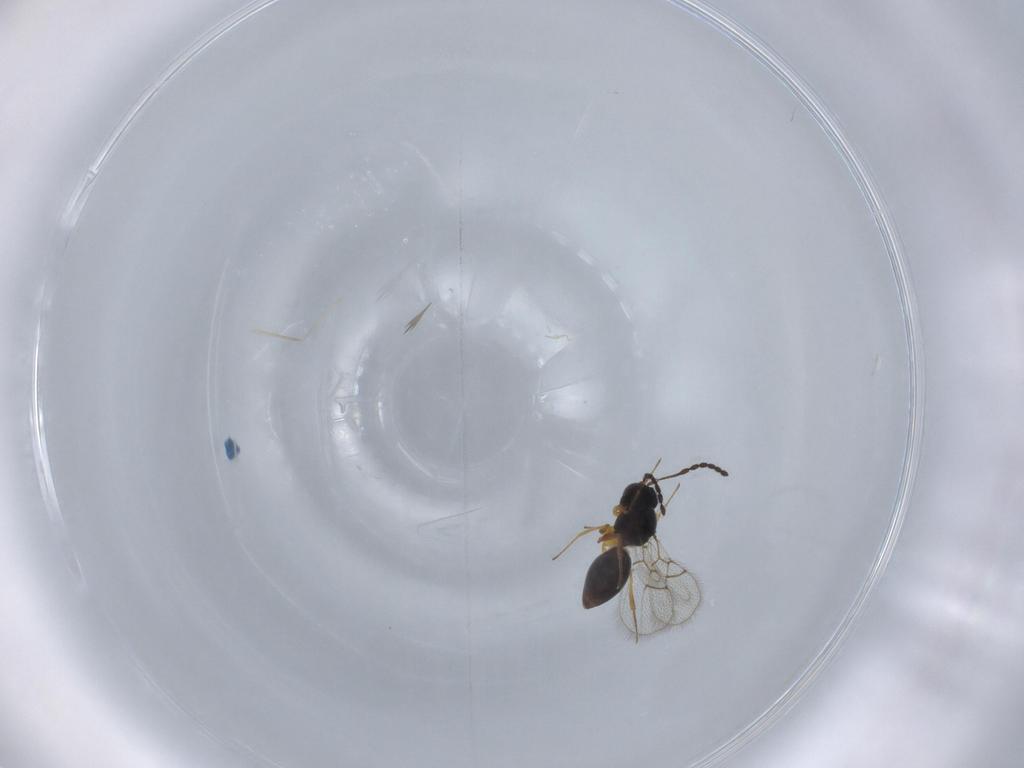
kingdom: Animalia
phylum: Arthropoda
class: Insecta
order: Hymenoptera
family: Figitidae
